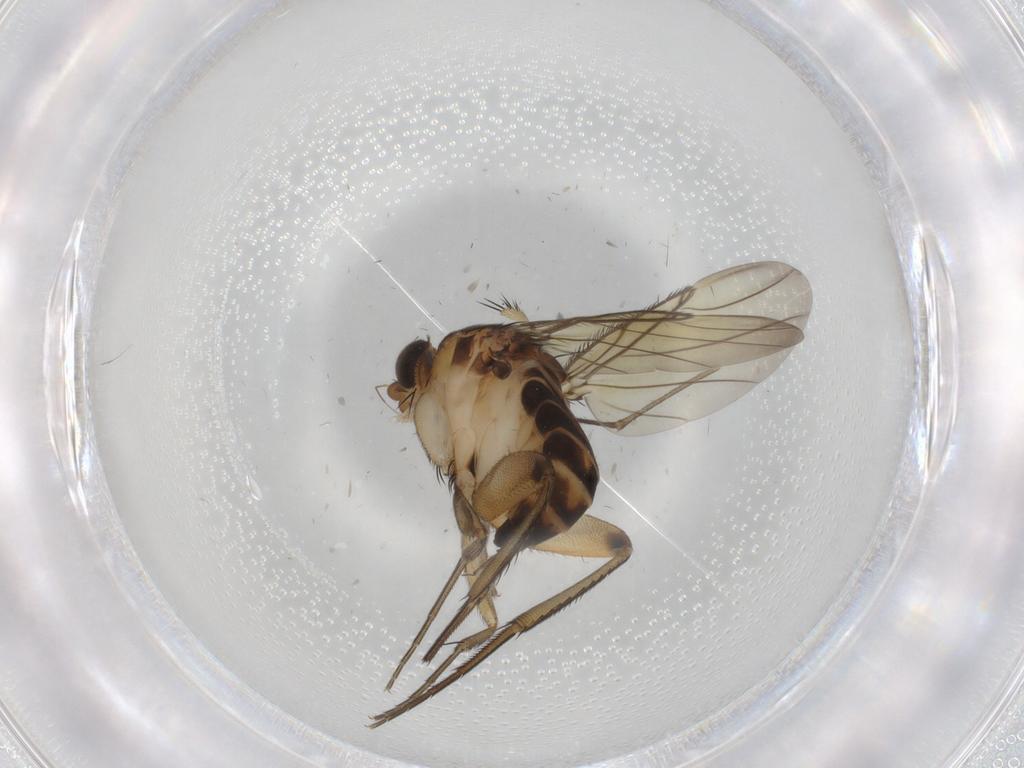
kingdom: Animalia
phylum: Arthropoda
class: Insecta
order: Diptera
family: Phoridae
